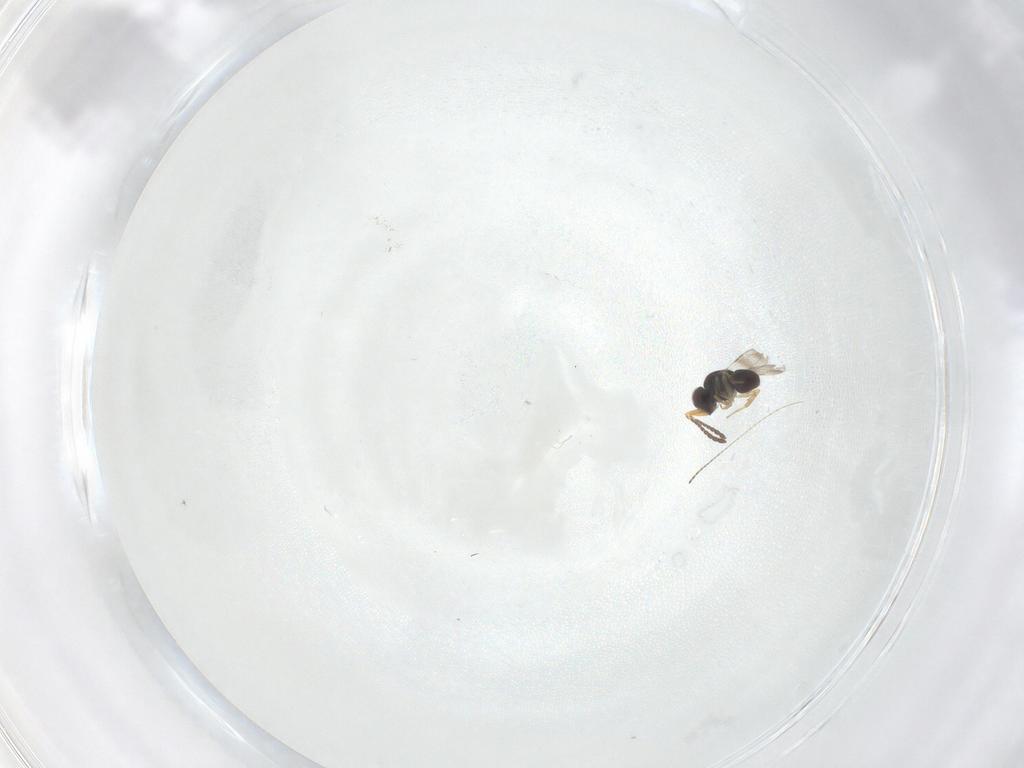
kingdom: Animalia
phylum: Arthropoda
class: Insecta
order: Hymenoptera
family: Ceraphronidae
